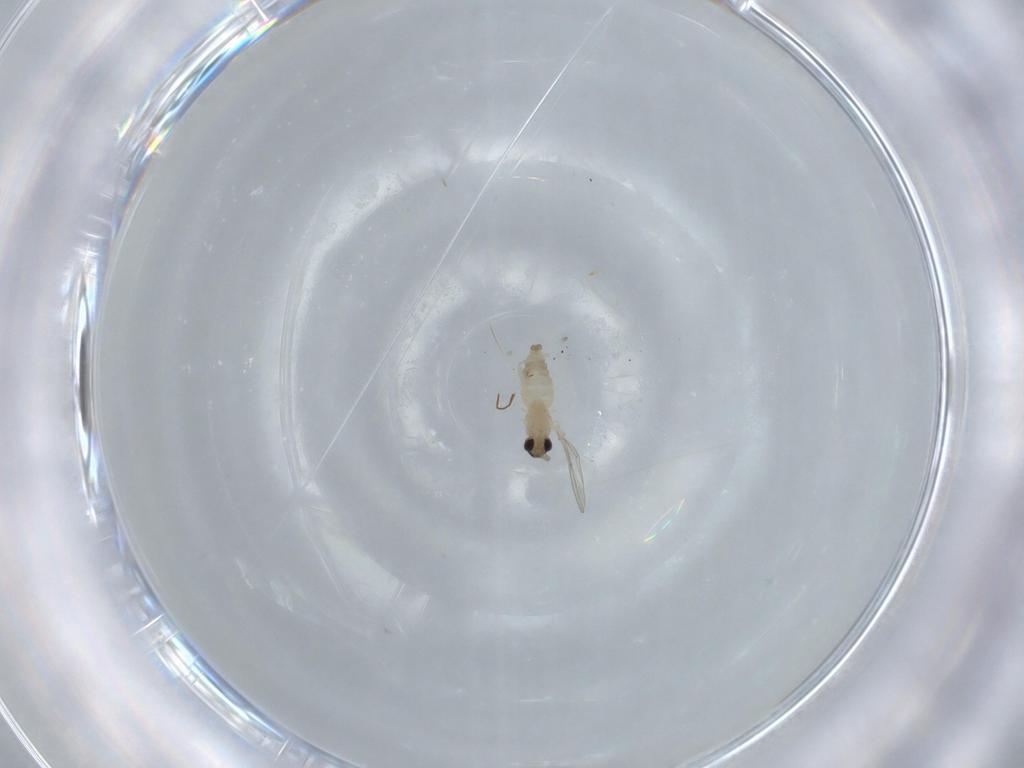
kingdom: Animalia
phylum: Arthropoda
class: Insecta
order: Diptera
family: Cecidomyiidae
